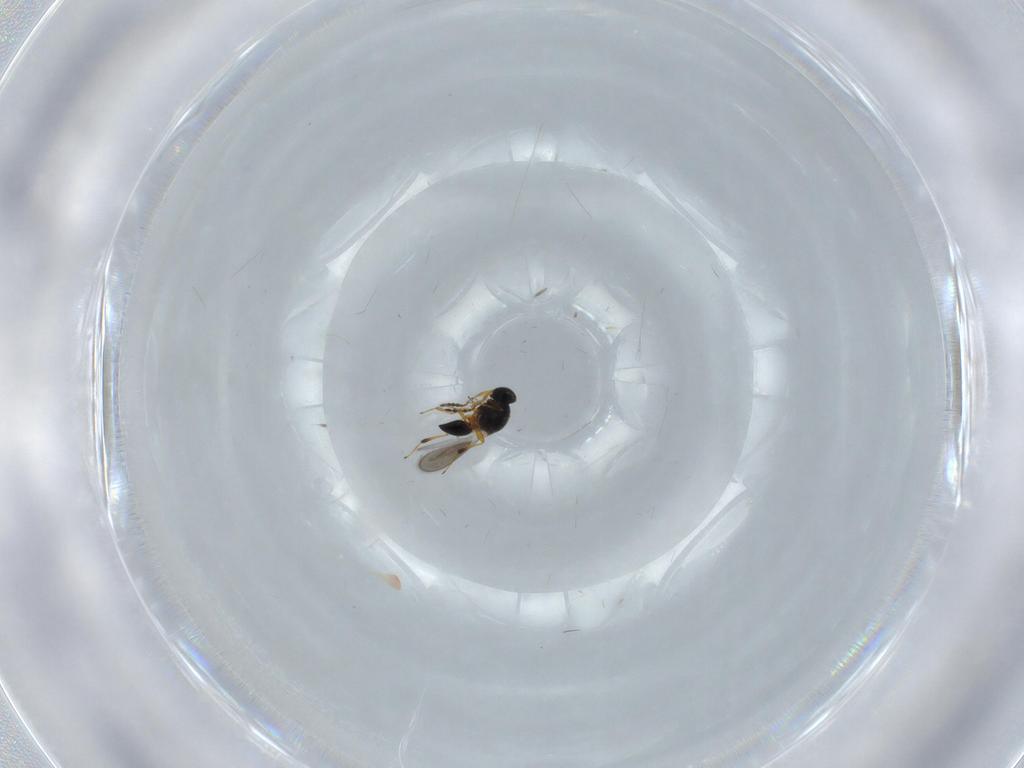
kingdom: Animalia
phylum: Arthropoda
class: Insecta
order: Hymenoptera
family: Platygastridae
